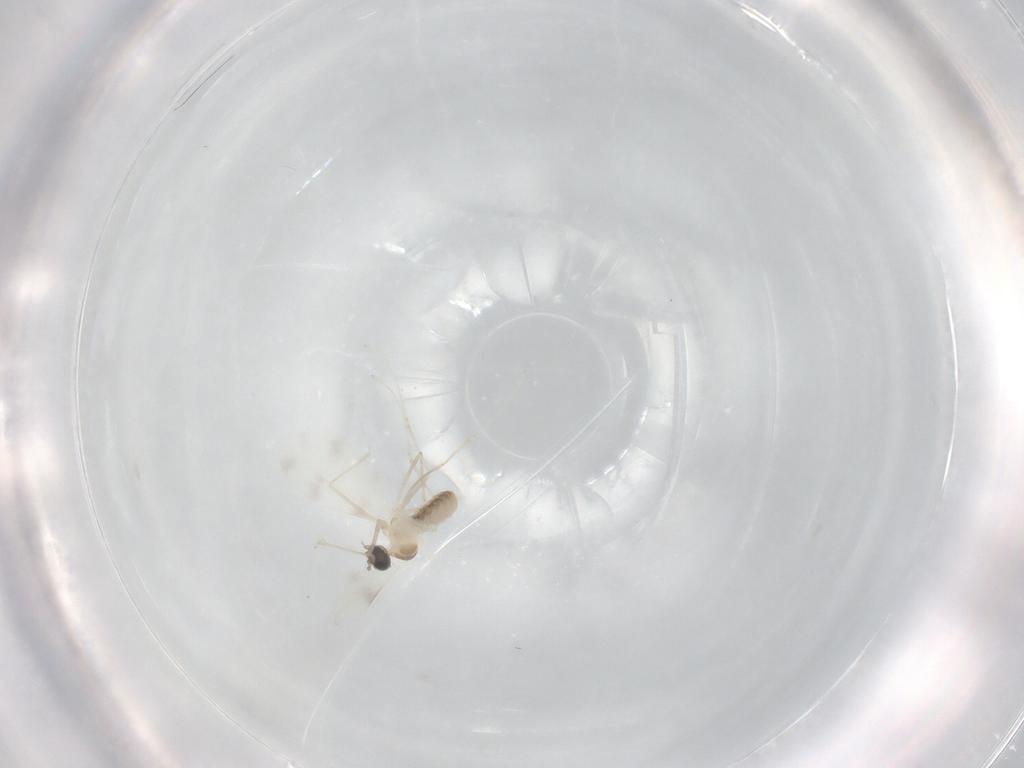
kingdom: Animalia
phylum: Arthropoda
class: Insecta
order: Diptera
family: Cecidomyiidae
